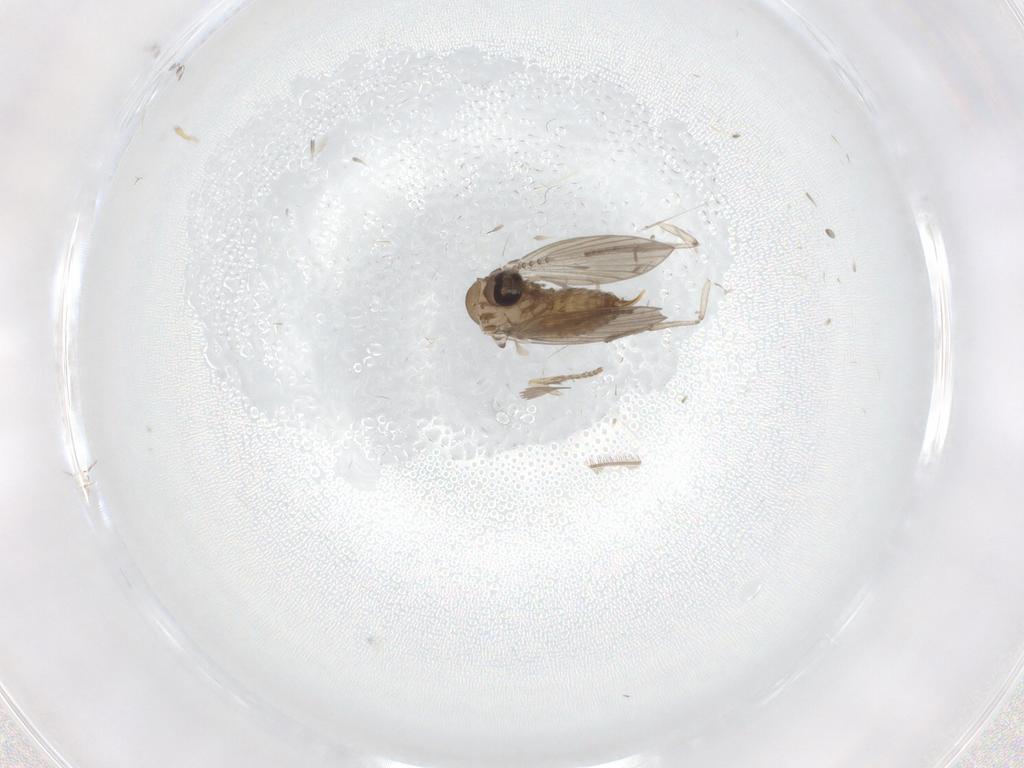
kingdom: Animalia
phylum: Arthropoda
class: Insecta
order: Diptera
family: Psychodidae
